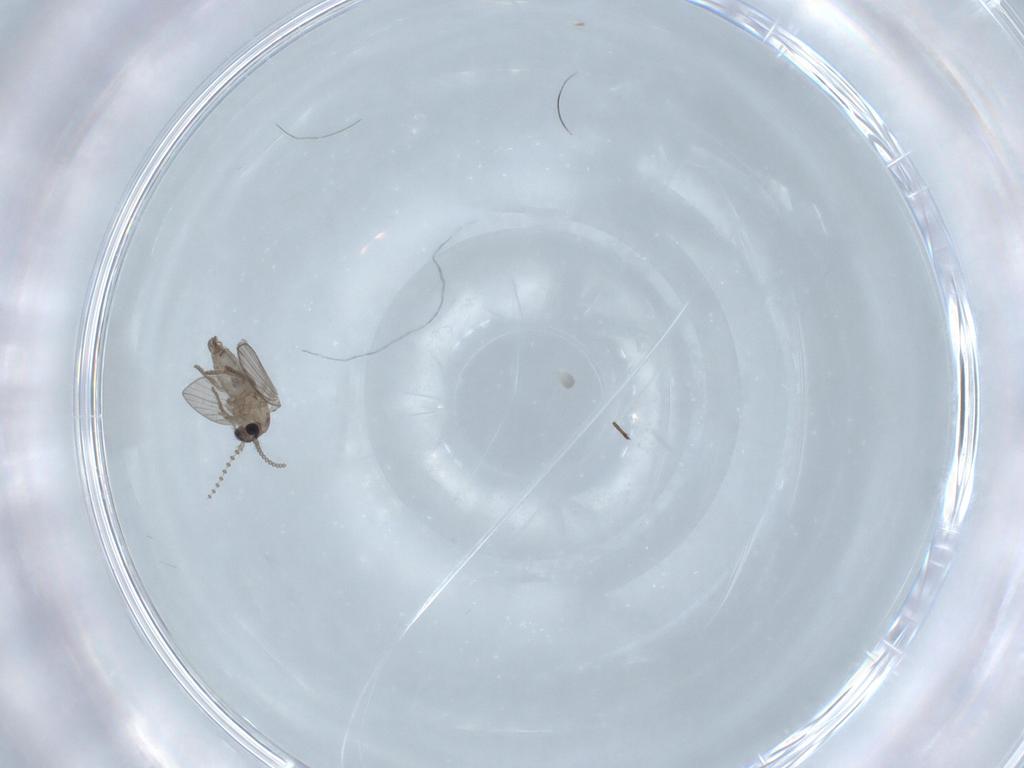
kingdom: Animalia
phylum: Arthropoda
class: Insecta
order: Diptera
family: Psychodidae
